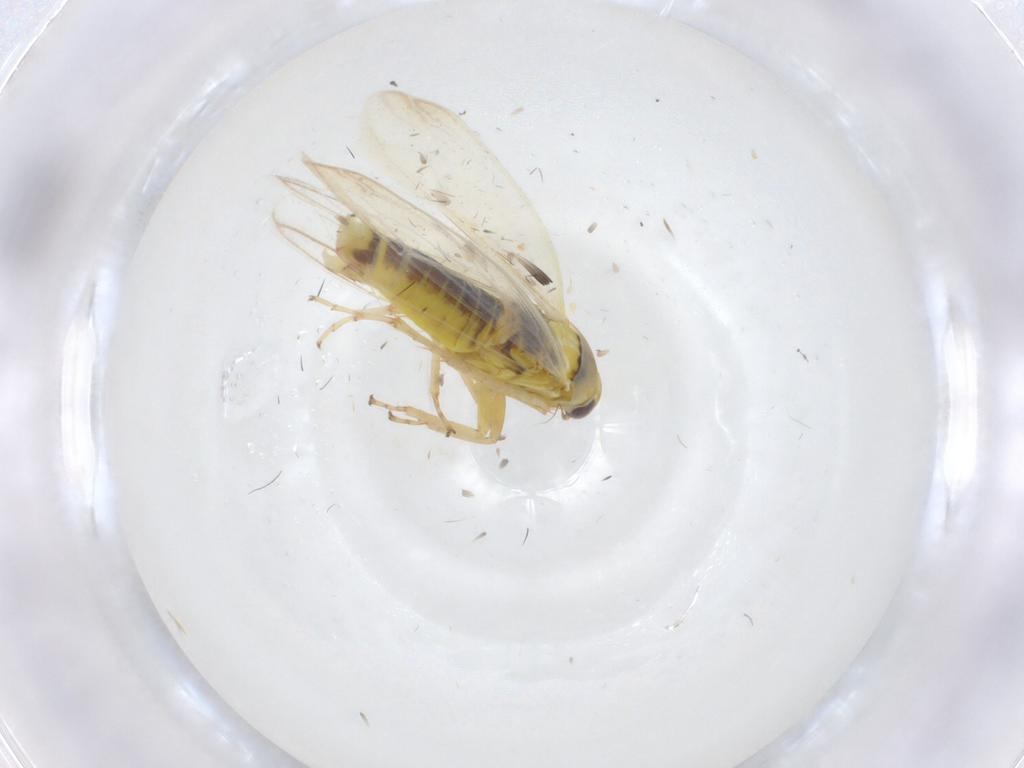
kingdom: Animalia
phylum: Arthropoda
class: Insecta
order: Hemiptera
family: Cicadellidae
